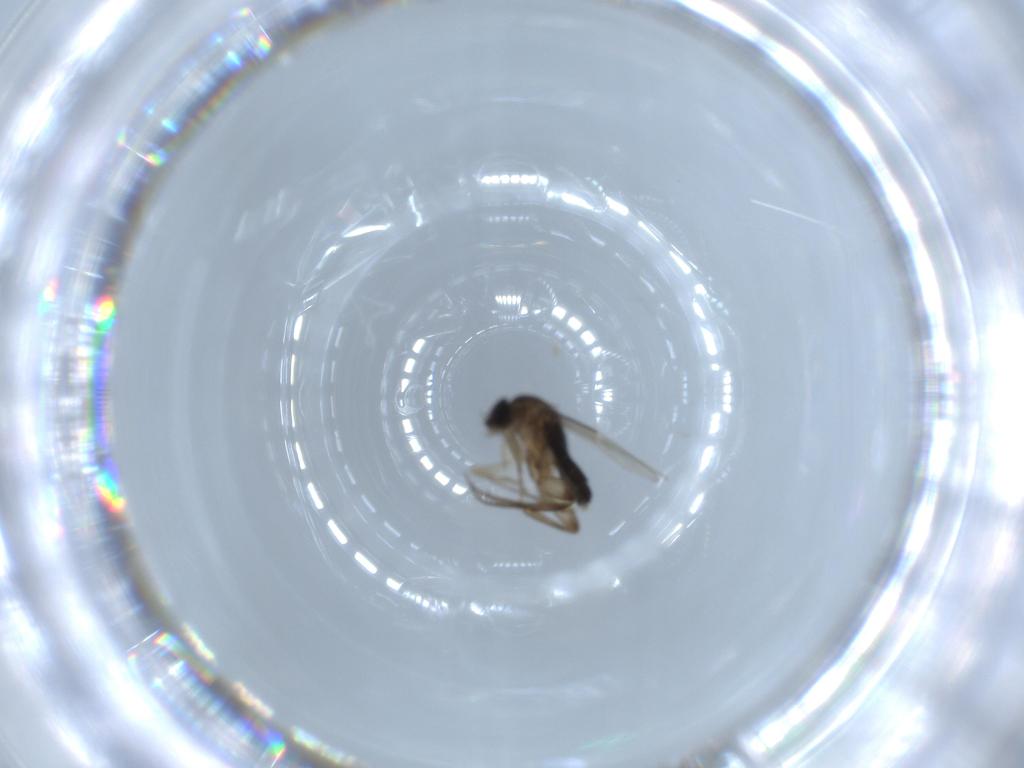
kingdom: Animalia
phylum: Arthropoda
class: Insecta
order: Diptera
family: Phoridae
